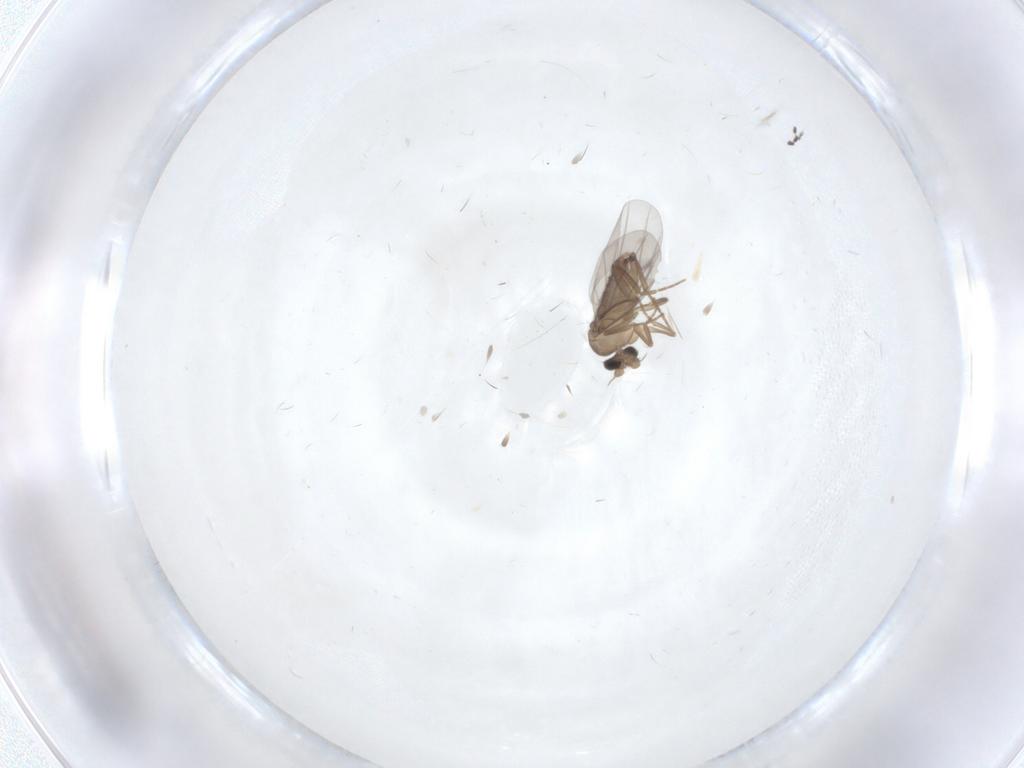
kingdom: Animalia
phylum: Arthropoda
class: Insecta
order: Diptera
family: Cecidomyiidae
